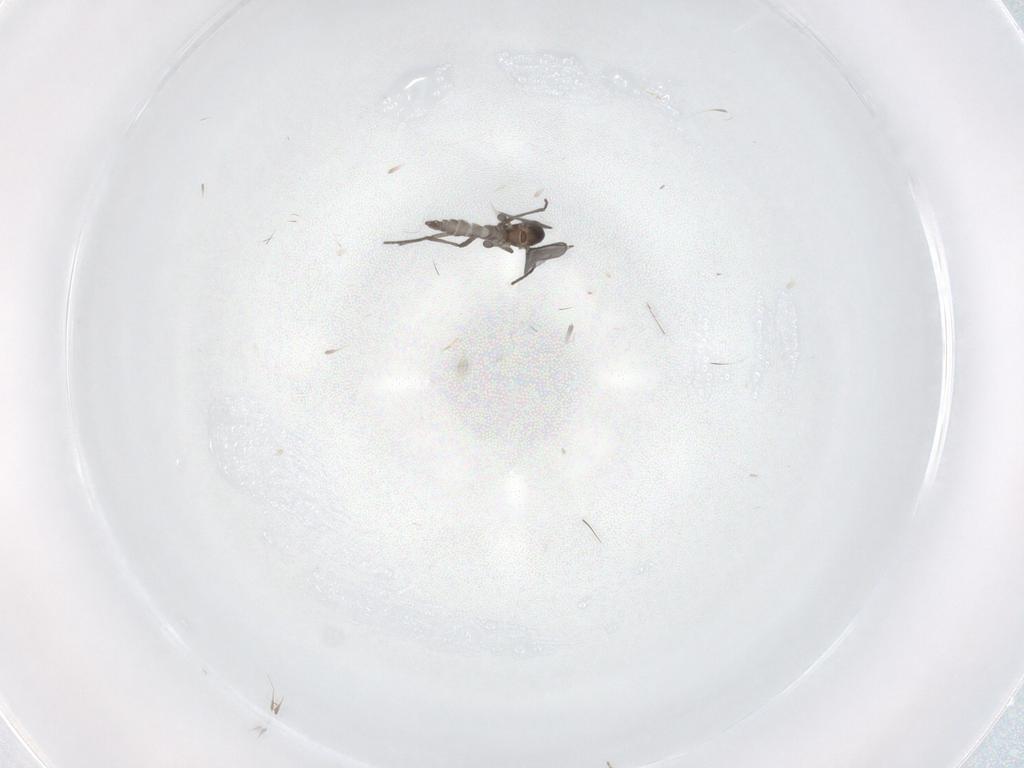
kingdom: Animalia
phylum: Arthropoda
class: Insecta
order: Diptera
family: Sciaridae
